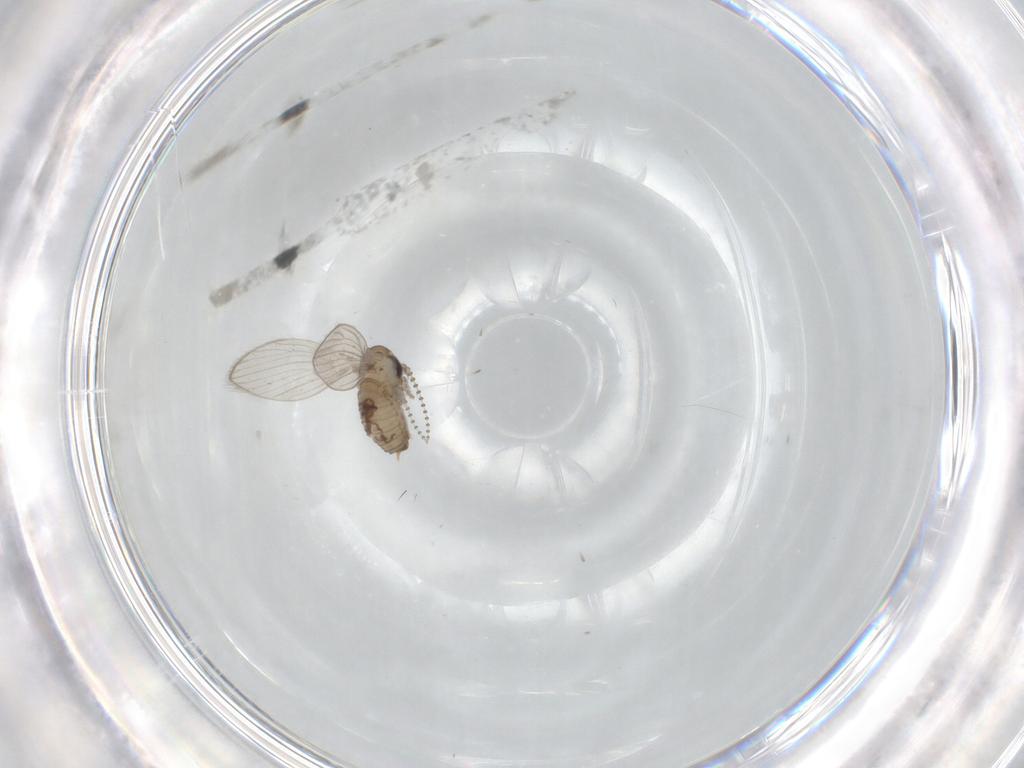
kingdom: Animalia
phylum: Arthropoda
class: Insecta
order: Diptera
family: Psychodidae
